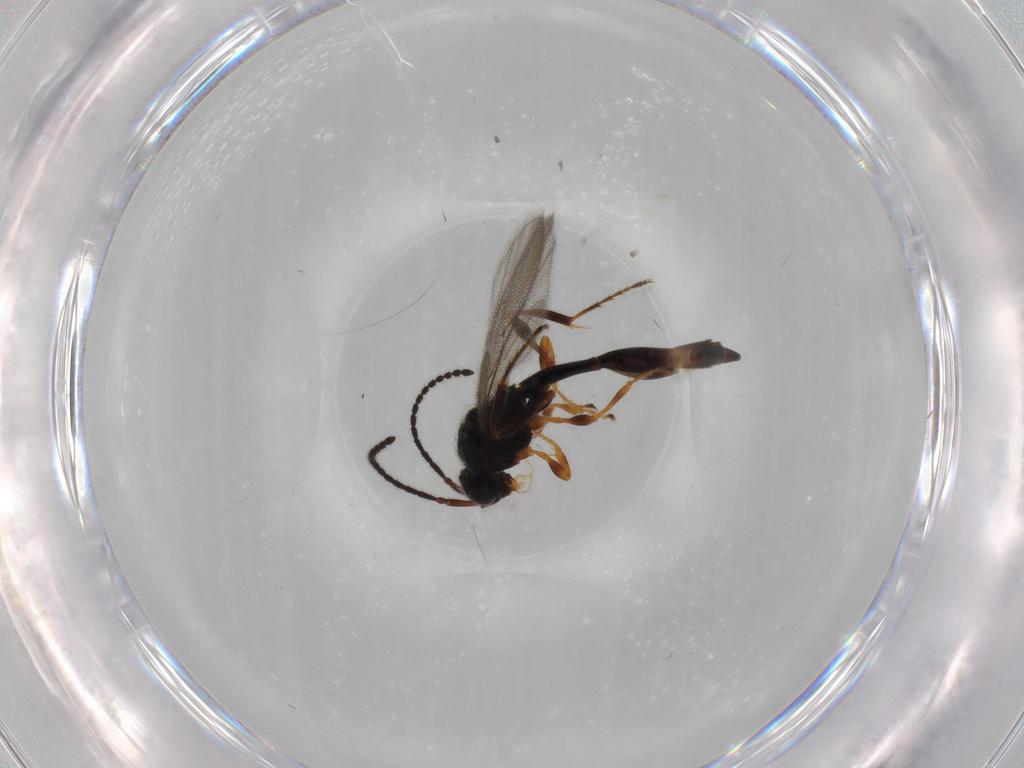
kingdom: Animalia
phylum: Arthropoda
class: Insecta
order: Hymenoptera
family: Diapriidae
